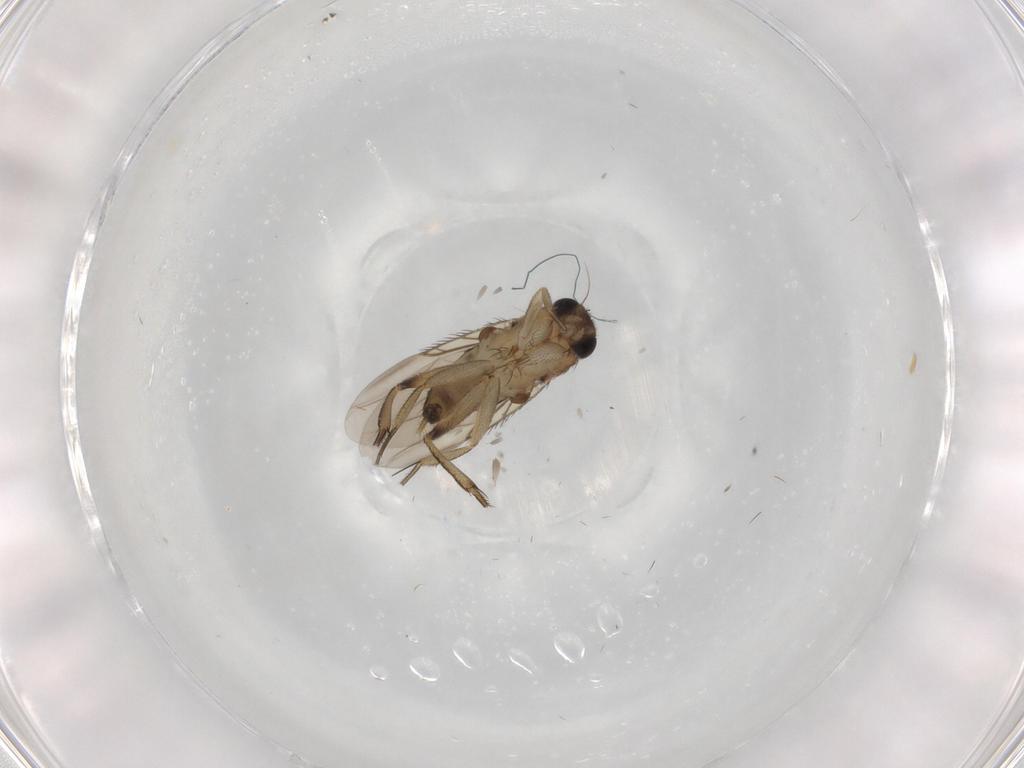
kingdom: Animalia
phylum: Arthropoda
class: Insecta
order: Diptera
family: Phoridae
